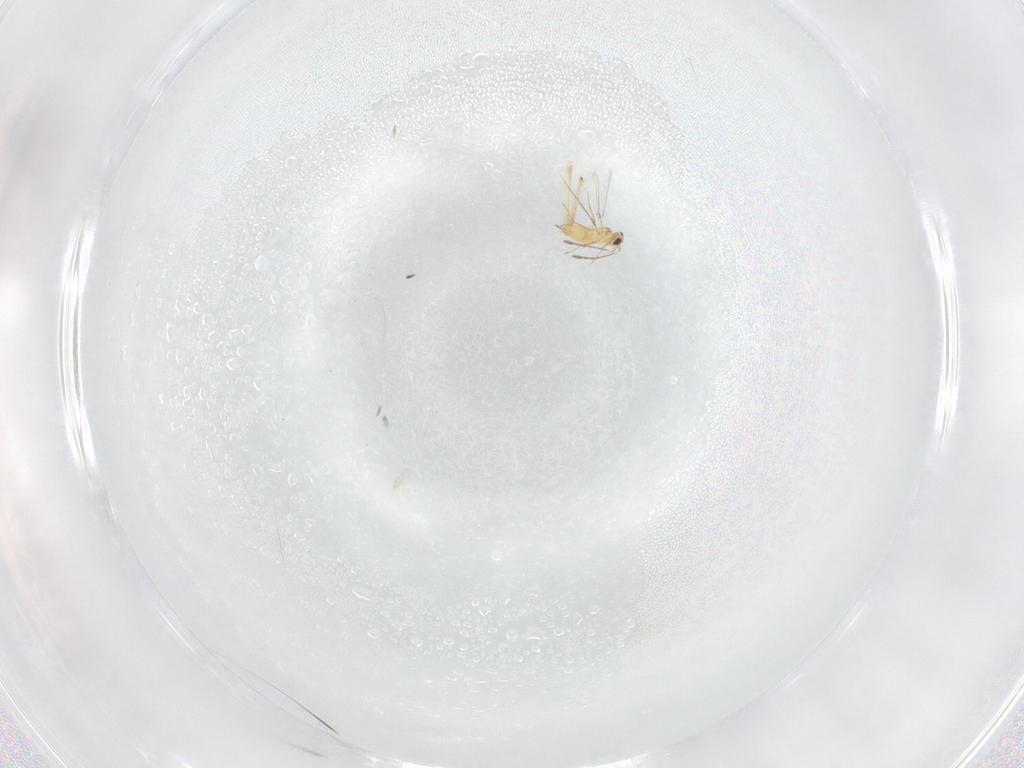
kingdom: Animalia
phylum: Arthropoda
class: Insecta
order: Hymenoptera
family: Mymaridae
